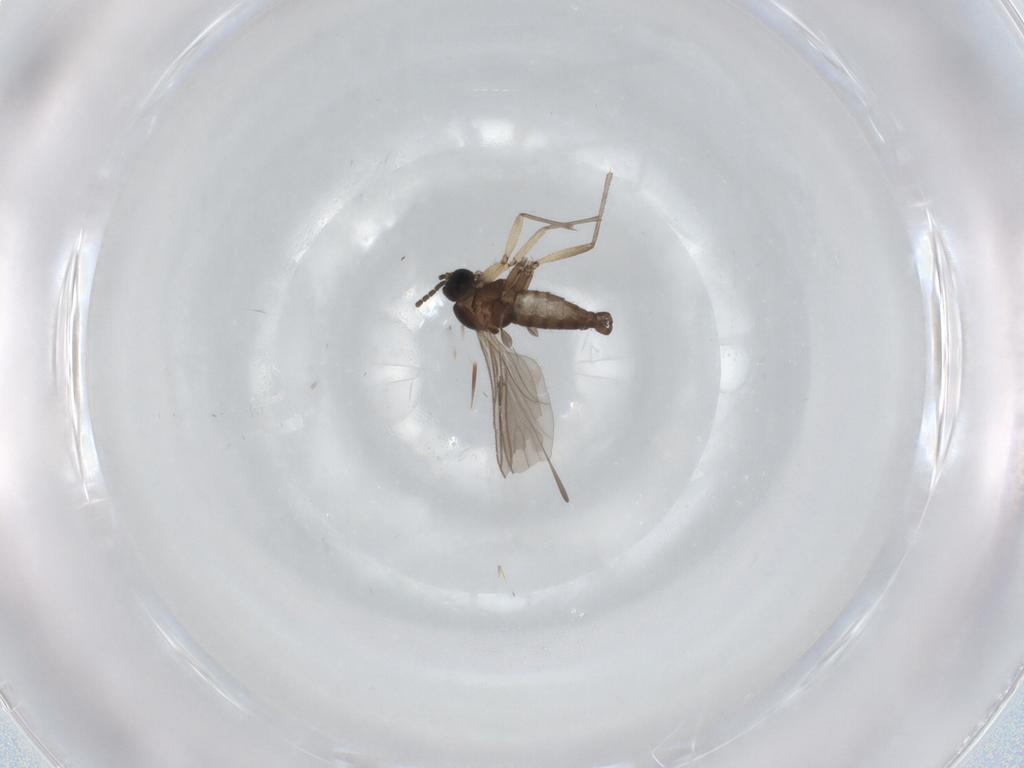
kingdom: Animalia
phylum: Arthropoda
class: Insecta
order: Diptera
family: Sciaridae
